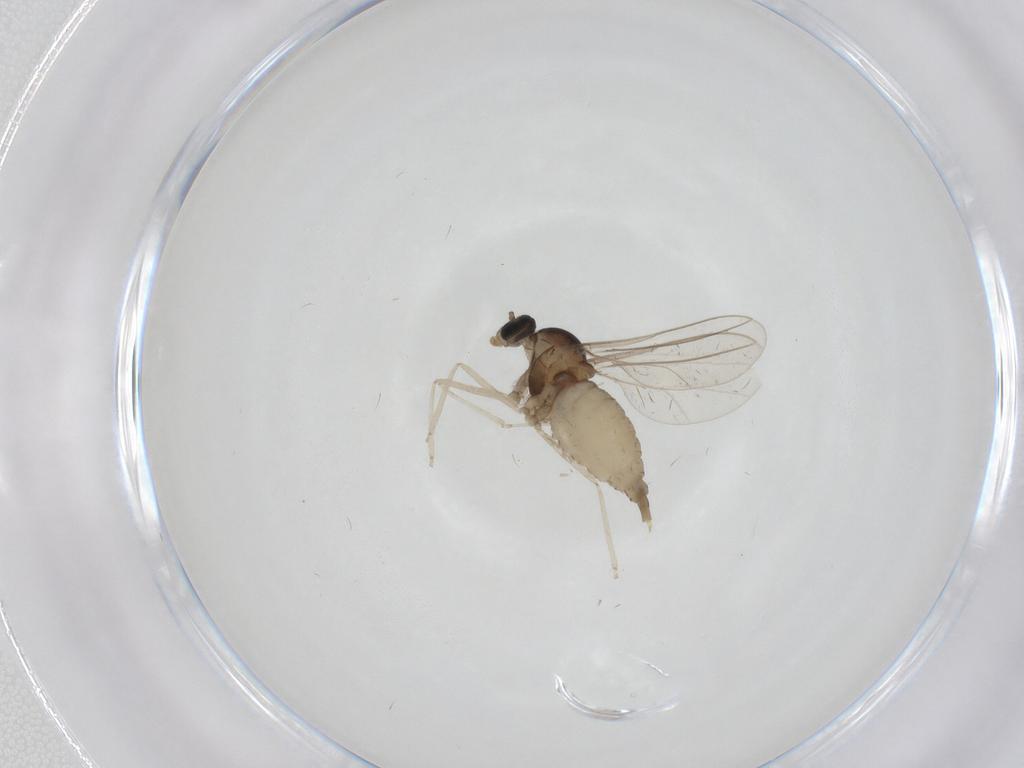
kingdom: Animalia
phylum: Arthropoda
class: Insecta
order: Diptera
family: Cecidomyiidae
